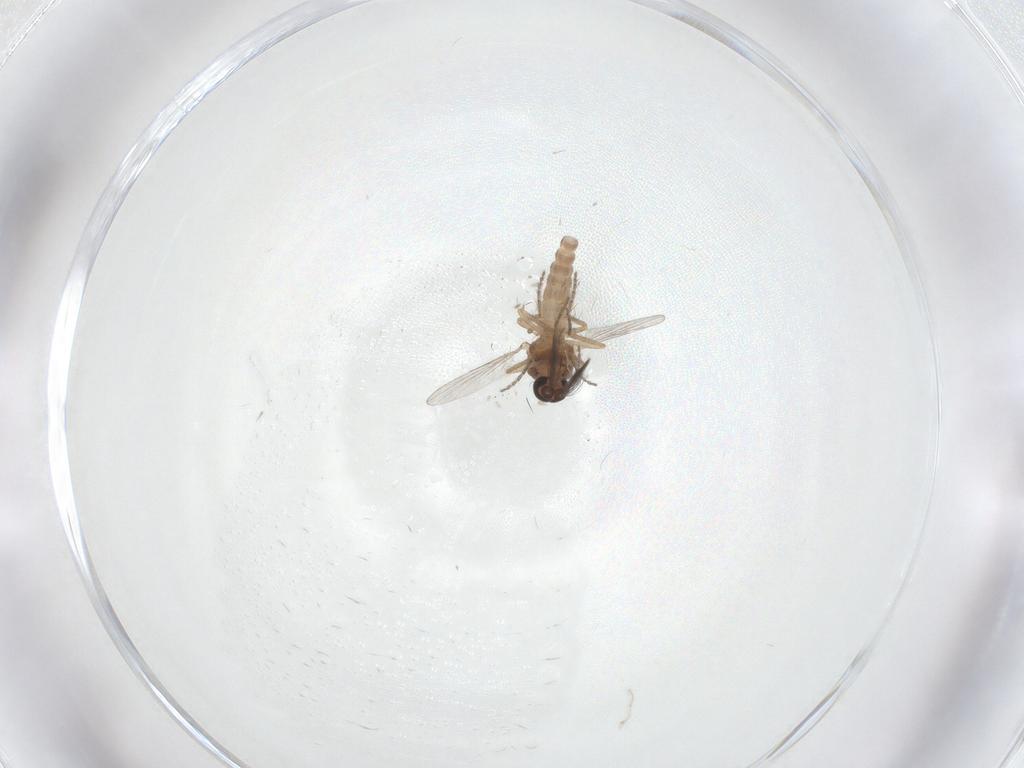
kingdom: Animalia
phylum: Arthropoda
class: Insecta
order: Diptera
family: Ceratopogonidae
